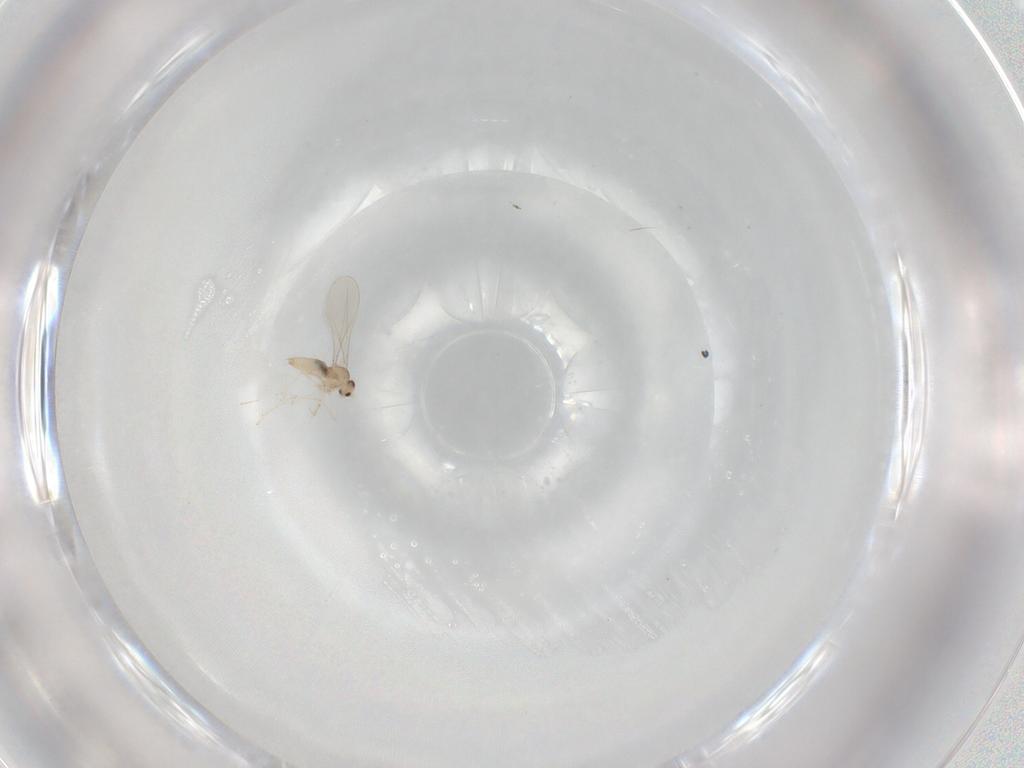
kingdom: Animalia
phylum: Arthropoda
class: Insecta
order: Diptera
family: Cecidomyiidae
